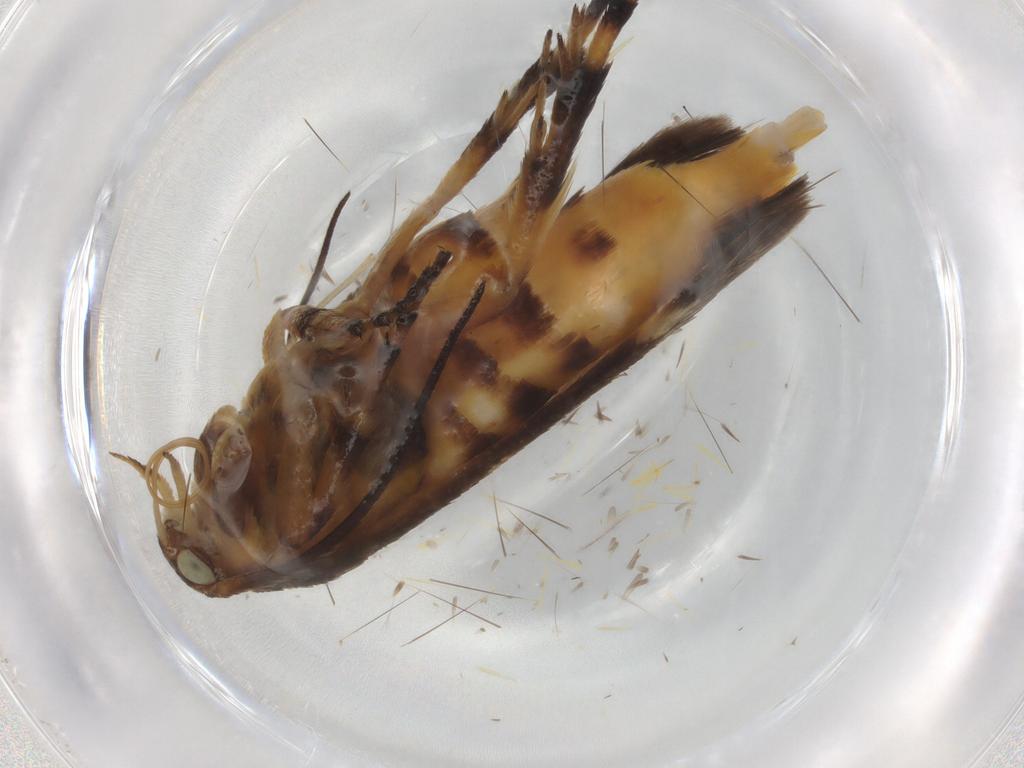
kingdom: Animalia
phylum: Arthropoda
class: Insecta
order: Lepidoptera
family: Scythrididae
